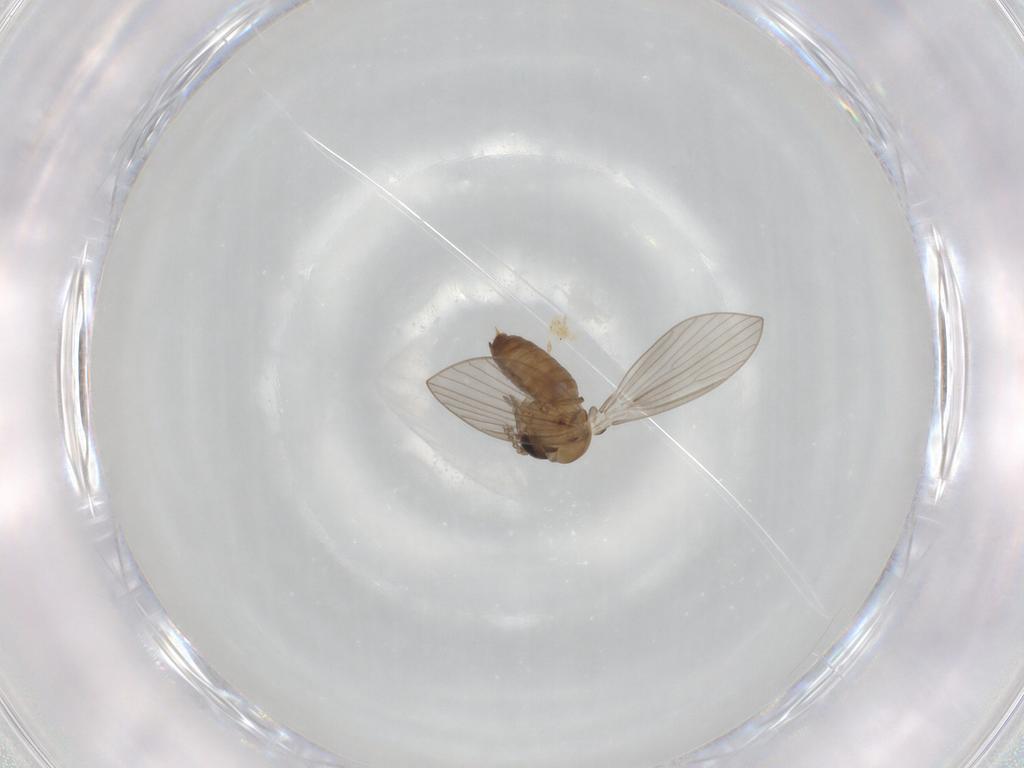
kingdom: Animalia
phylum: Arthropoda
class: Insecta
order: Diptera
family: Psychodidae
